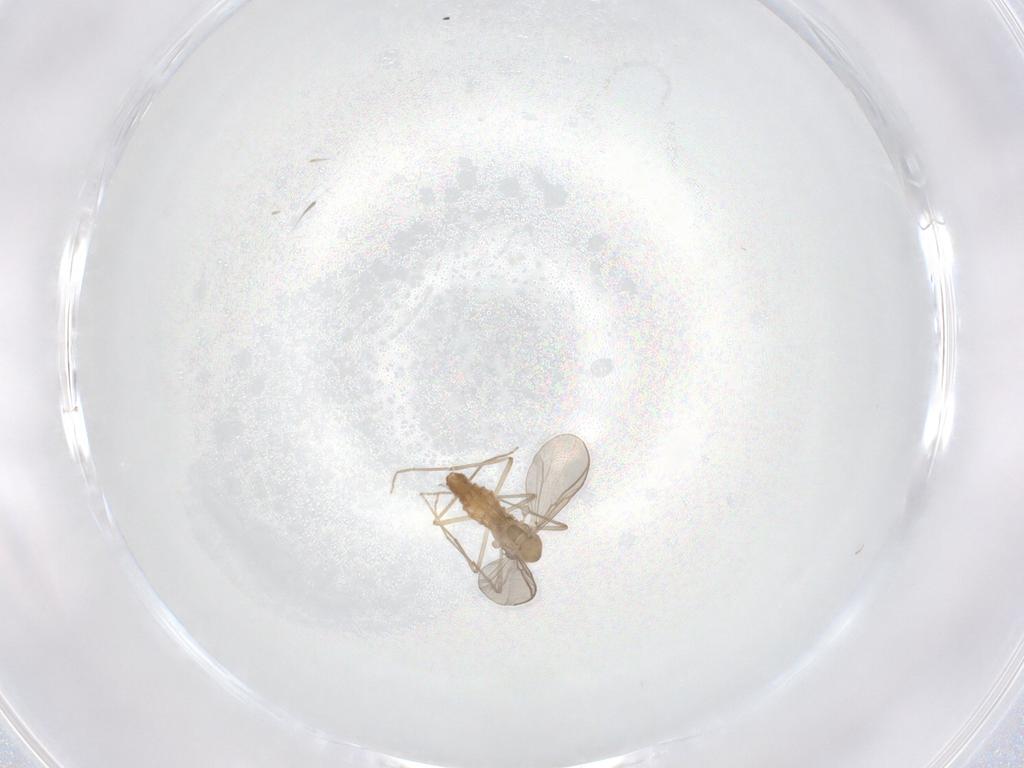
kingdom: Animalia
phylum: Arthropoda
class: Insecta
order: Diptera
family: Chironomidae
